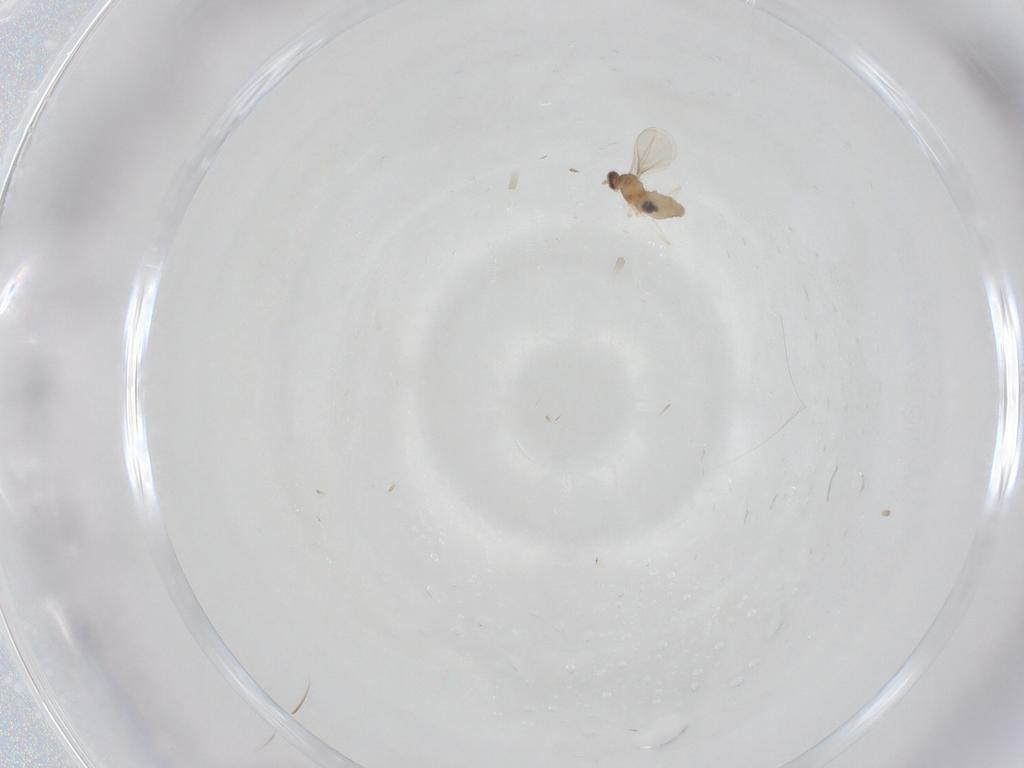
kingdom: Animalia
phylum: Arthropoda
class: Insecta
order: Diptera
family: Cecidomyiidae
